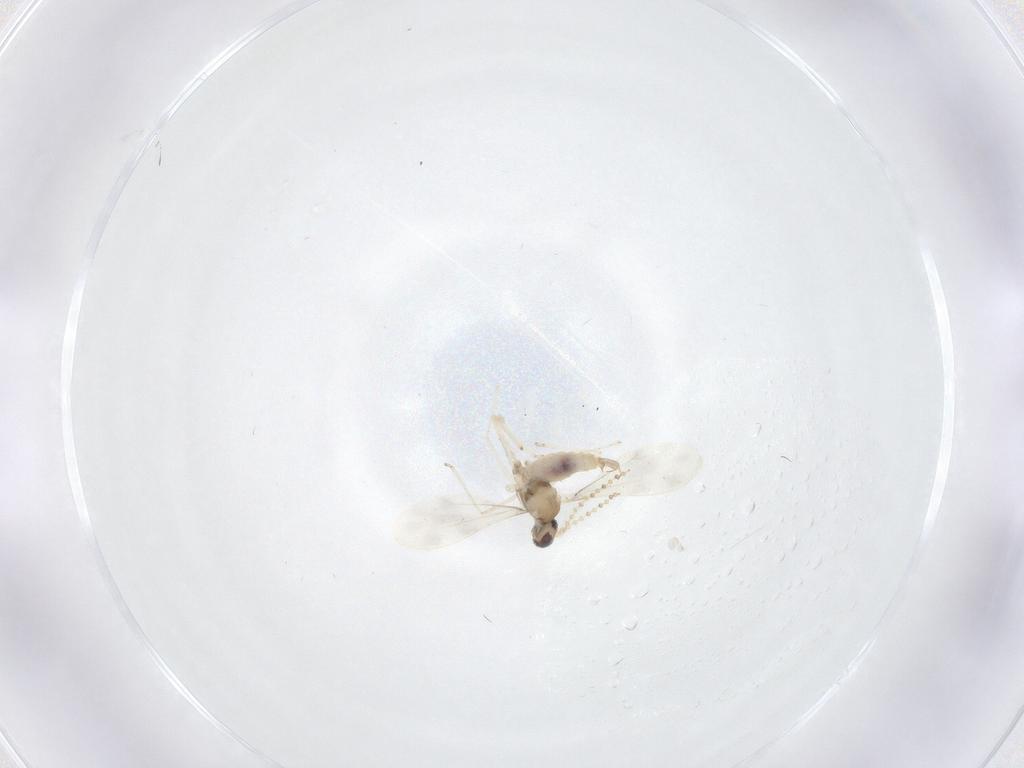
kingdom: Animalia
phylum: Arthropoda
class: Insecta
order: Diptera
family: Cecidomyiidae
